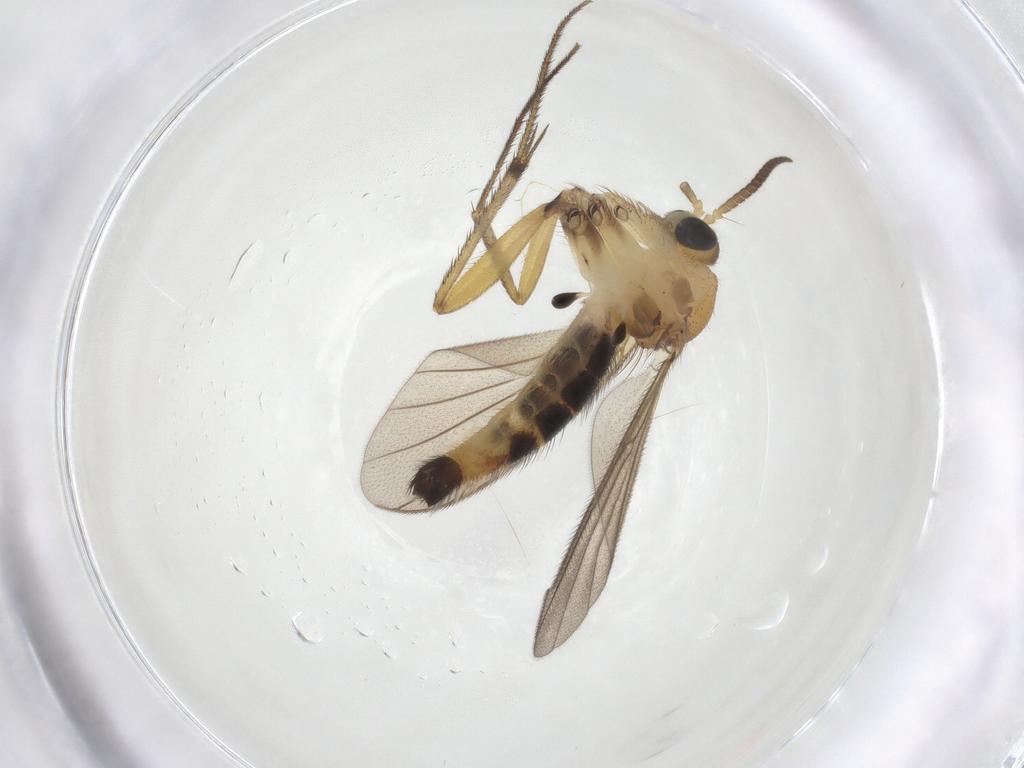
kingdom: Animalia
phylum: Arthropoda
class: Insecta
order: Diptera
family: Mycetophilidae
